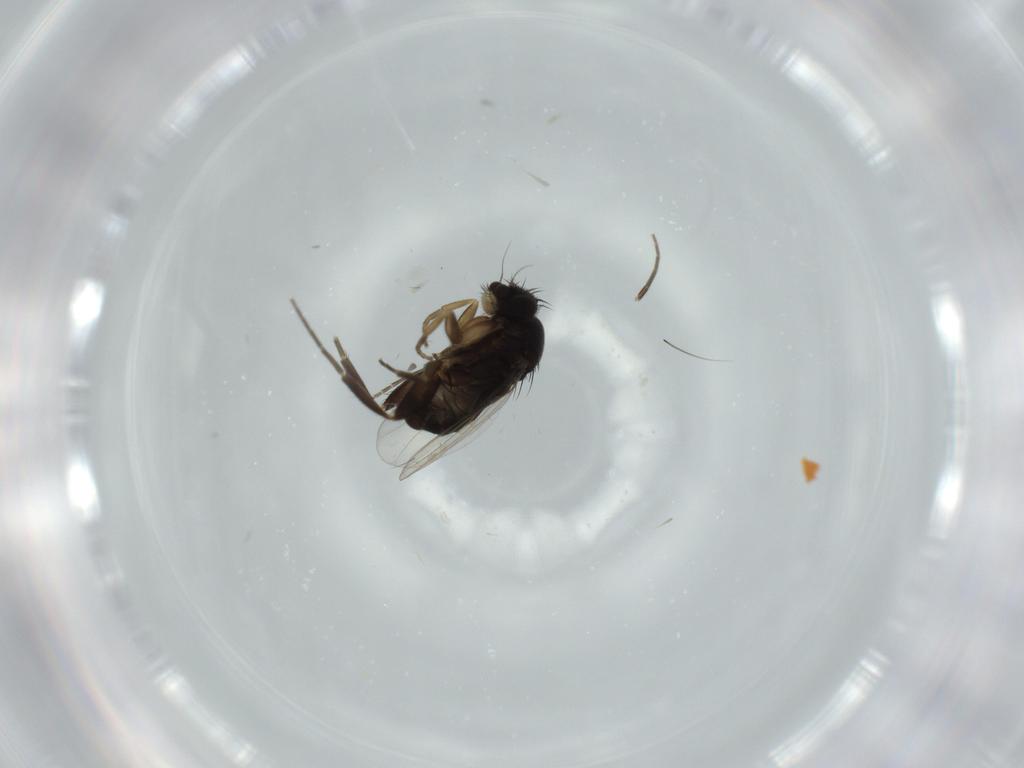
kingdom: Animalia
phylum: Arthropoda
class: Insecta
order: Diptera
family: Phoridae
